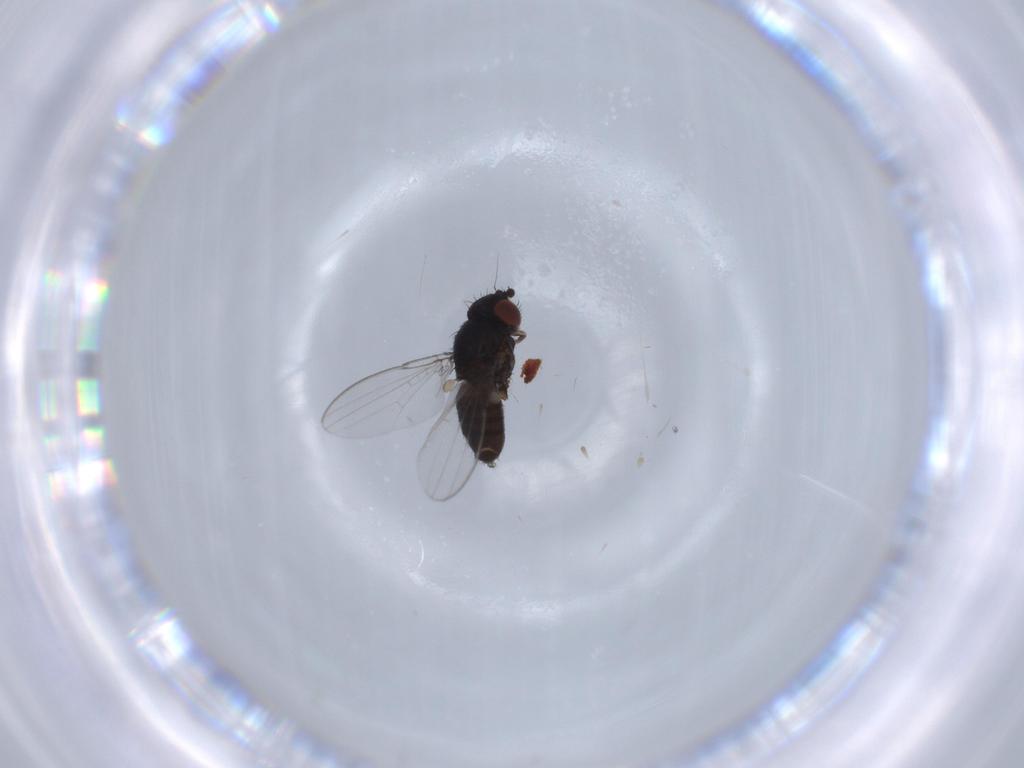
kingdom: Animalia
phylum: Arthropoda
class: Insecta
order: Diptera
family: Milichiidae
